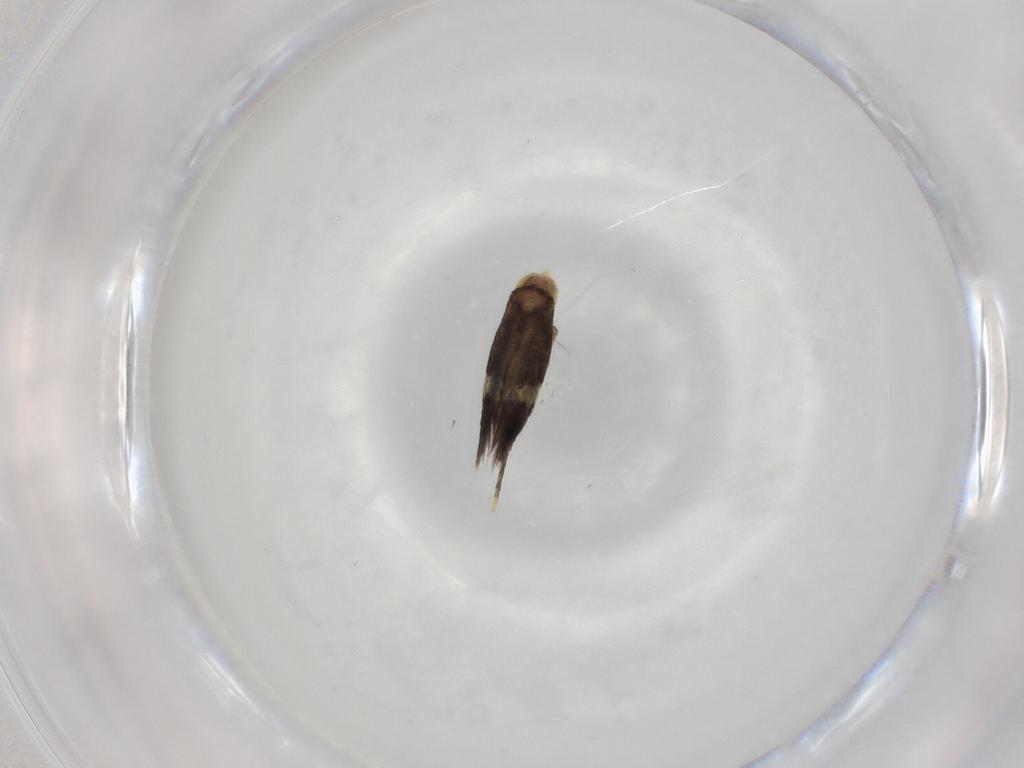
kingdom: Animalia
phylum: Arthropoda
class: Insecta
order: Lepidoptera
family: Nepticulidae
